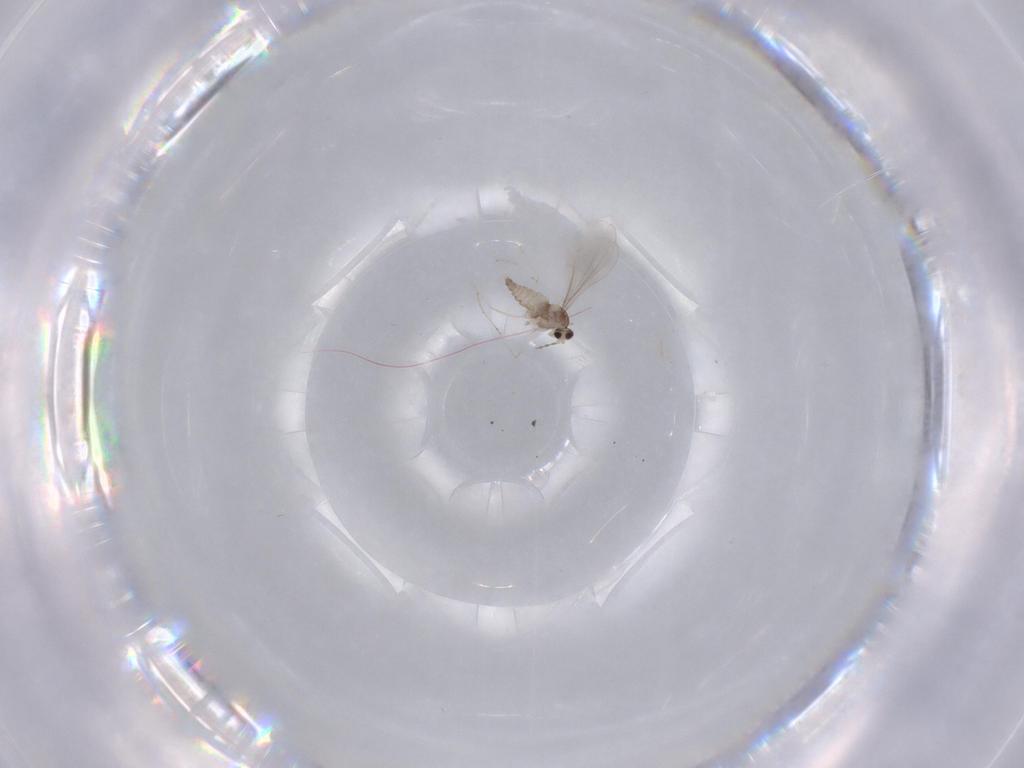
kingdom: Animalia
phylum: Arthropoda
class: Insecta
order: Diptera
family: Cecidomyiidae
